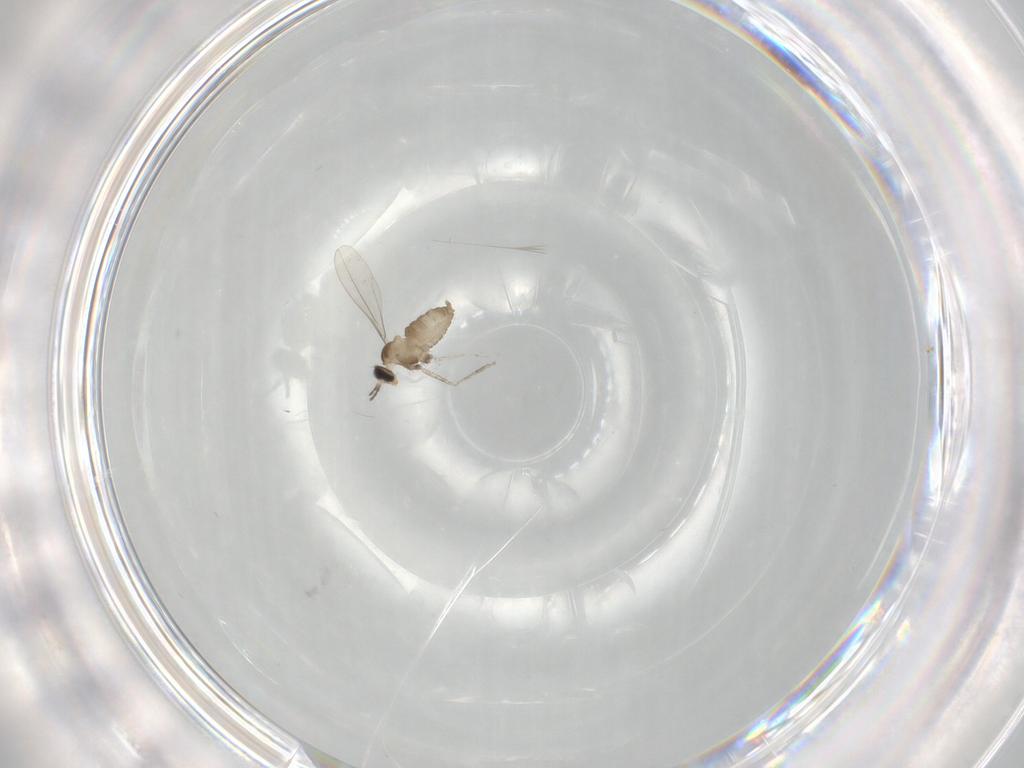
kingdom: Animalia
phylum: Arthropoda
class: Insecta
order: Diptera
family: Cecidomyiidae
